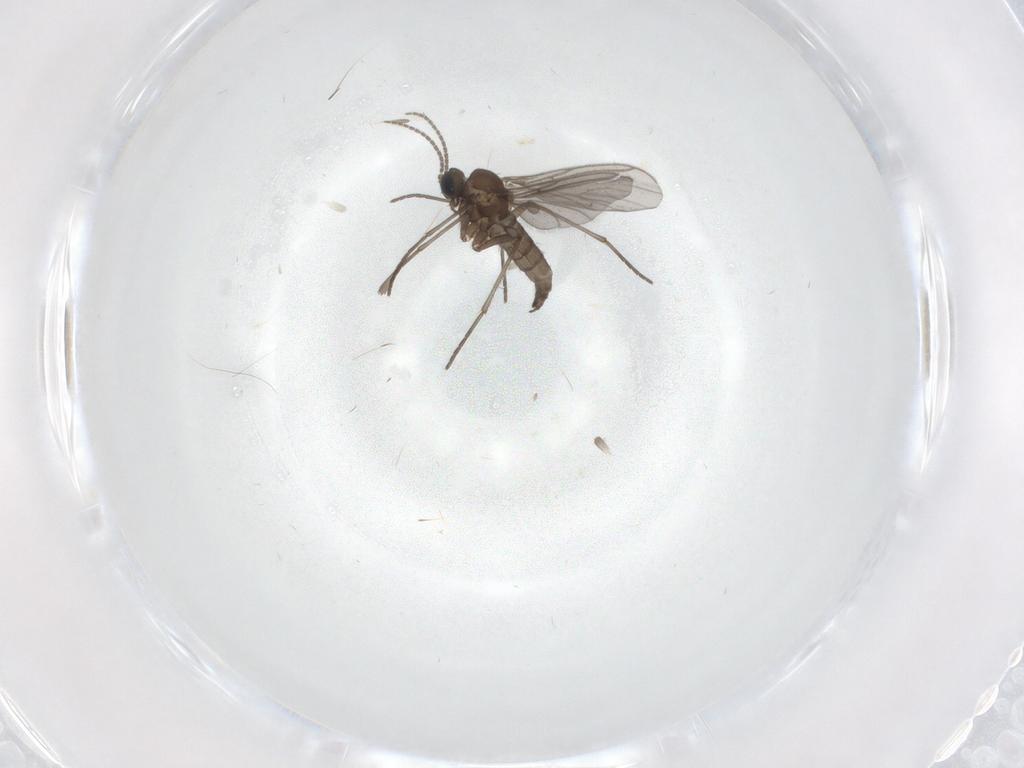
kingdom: Animalia
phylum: Arthropoda
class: Insecta
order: Diptera
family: Sciaridae
